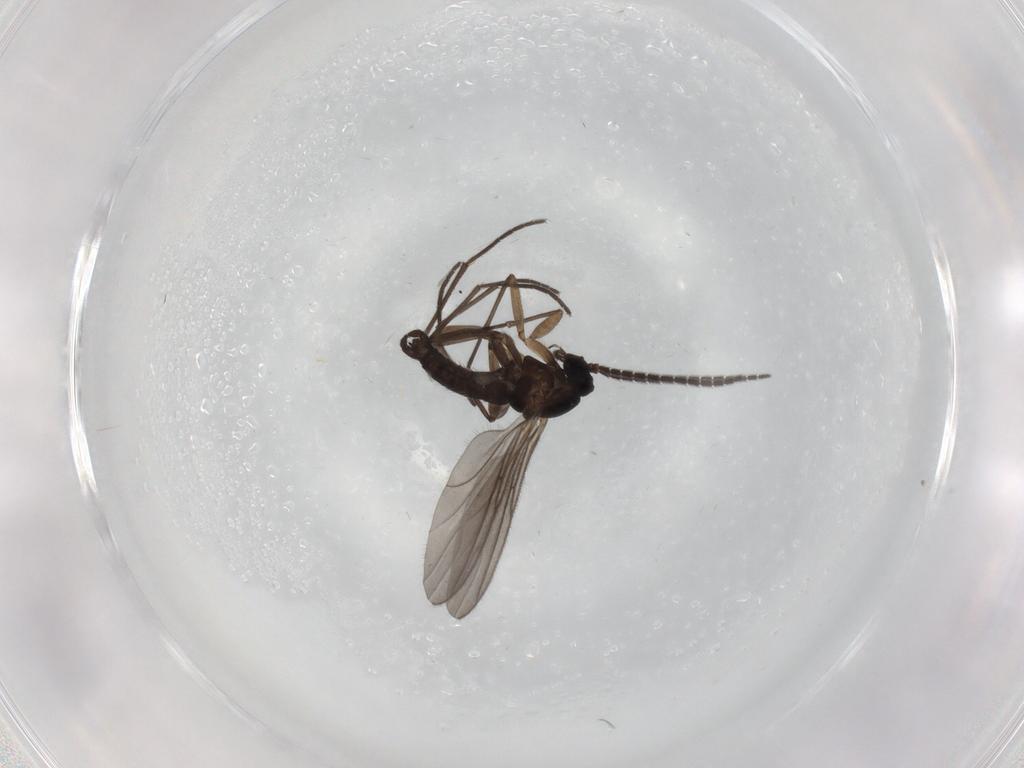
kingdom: Animalia
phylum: Arthropoda
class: Insecta
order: Diptera
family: Sciaridae
